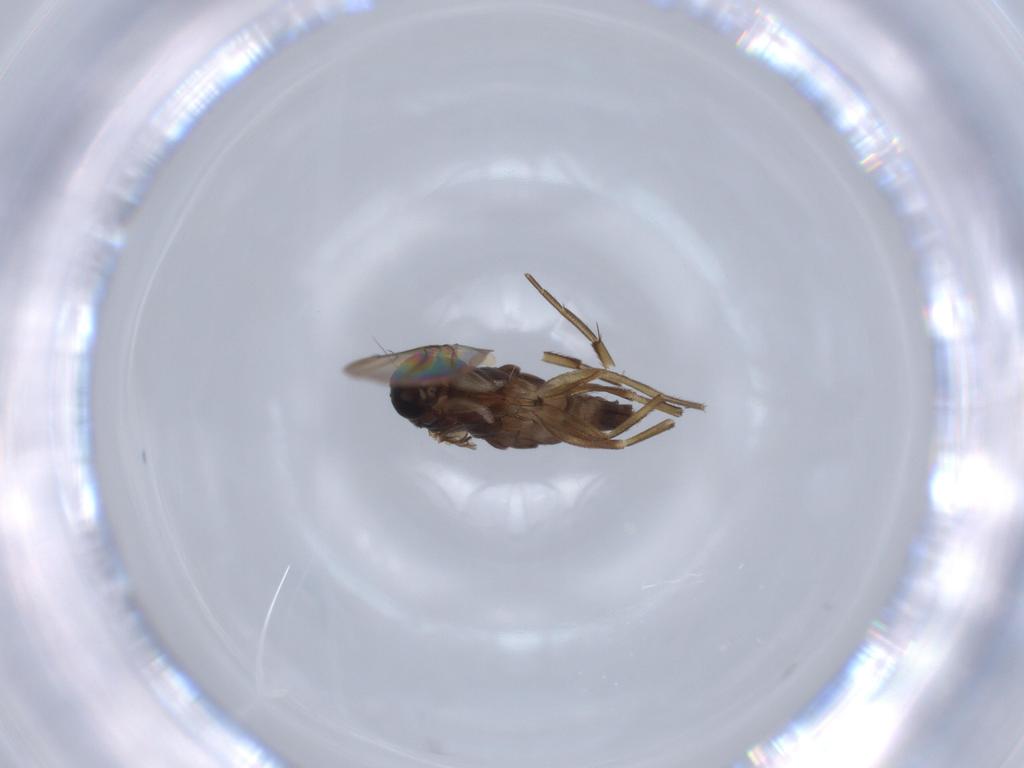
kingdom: Animalia
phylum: Arthropoda
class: Insecta
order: Diptera
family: Phoridae
